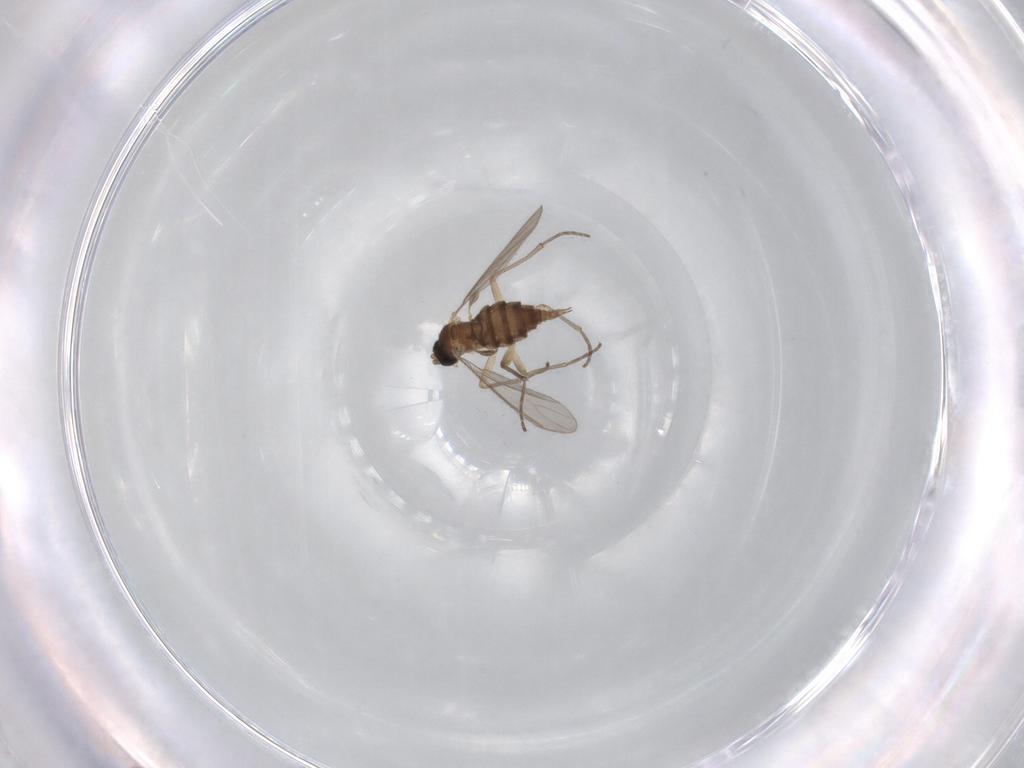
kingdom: Animalia
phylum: Arthropoda
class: Insecta
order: Diptera
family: Sciaridae
